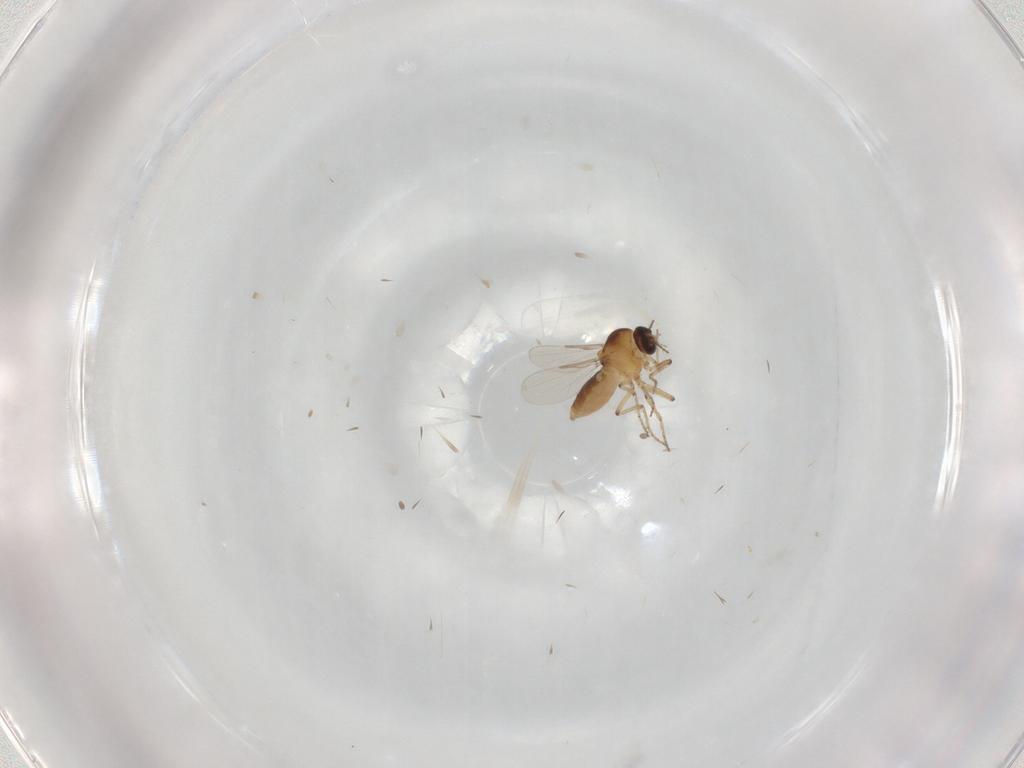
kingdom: Animalia
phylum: Arthropoda
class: Insecta
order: Diptera
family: Ceratopogonidae
